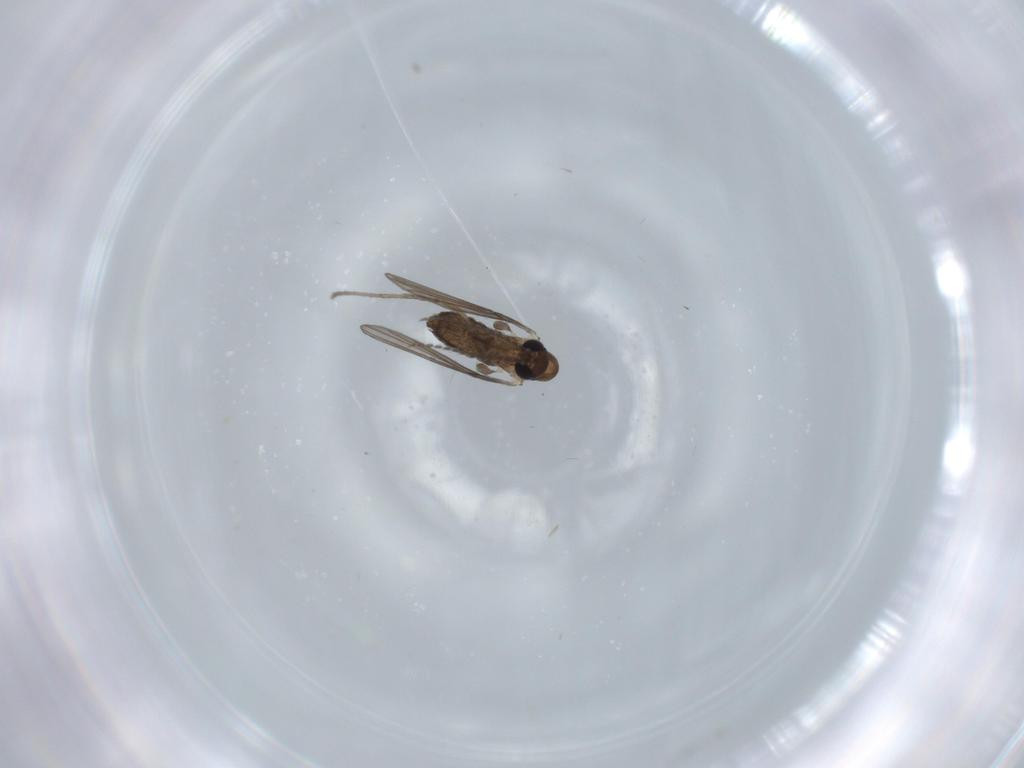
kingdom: Animalia
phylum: Arthropoda
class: Insecta
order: Diptera
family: Psychodidae
